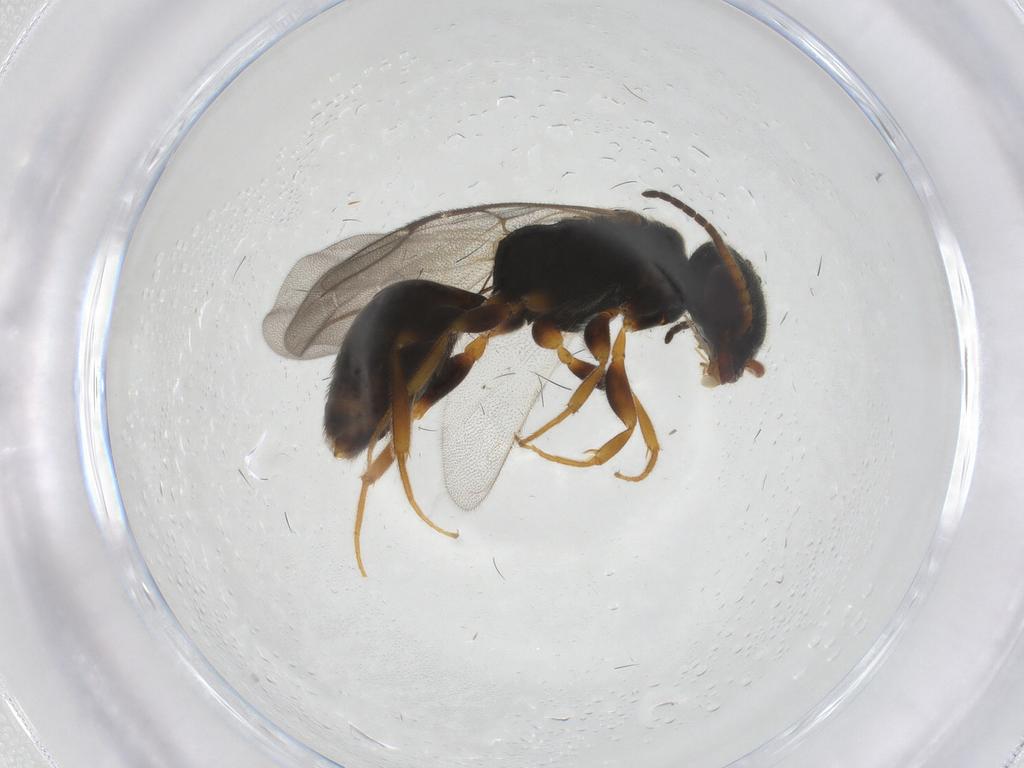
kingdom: Animalia
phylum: Arthropoda
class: Insecta
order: Hymenoptera
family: Bethylidae
